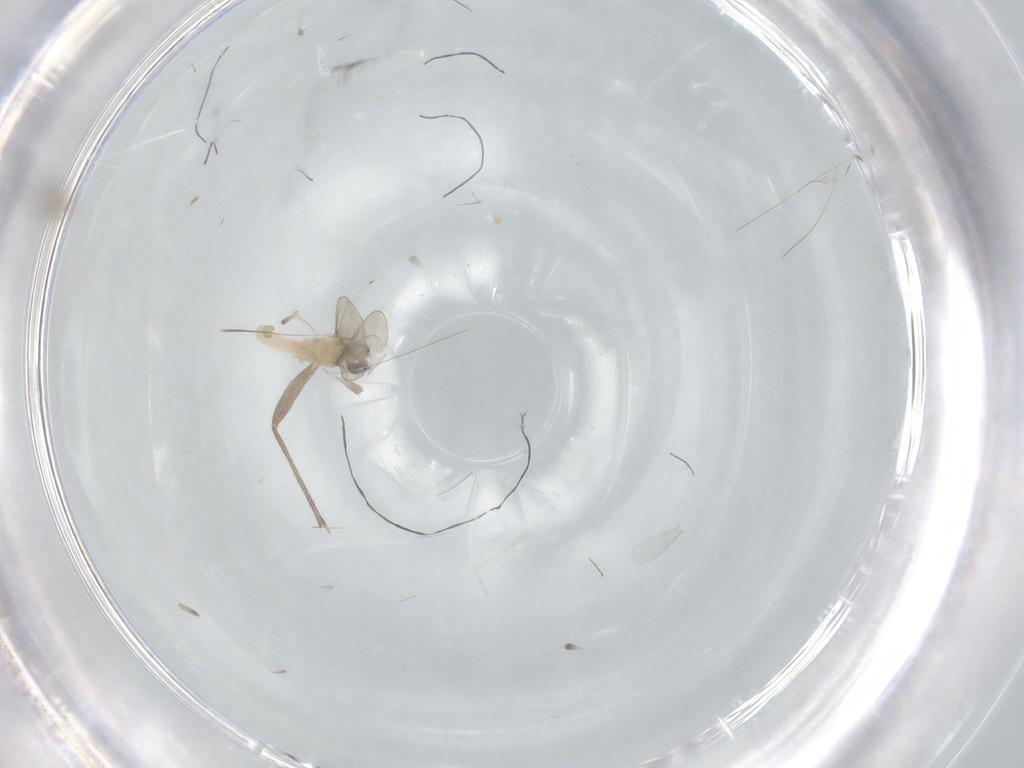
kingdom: Animalia
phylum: Arthropoda
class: Insecta
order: Diptera
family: Cecidomyiidae
